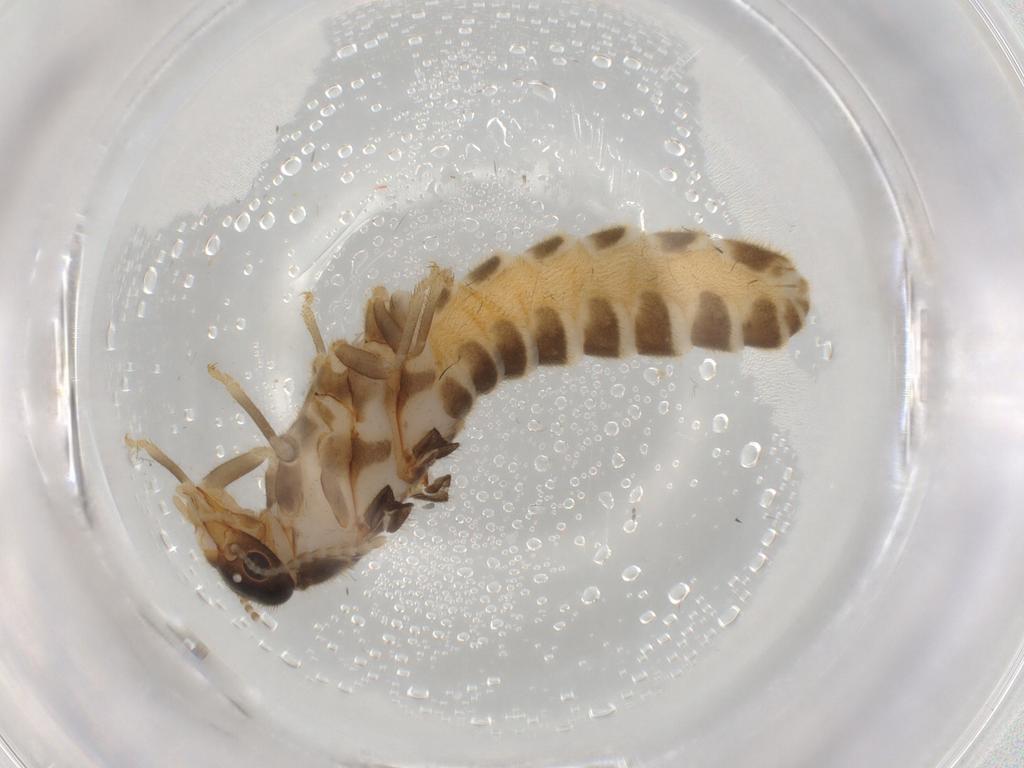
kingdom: Animalia
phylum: Arthropoda
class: Insecta
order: Blattodea
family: Termitidae
